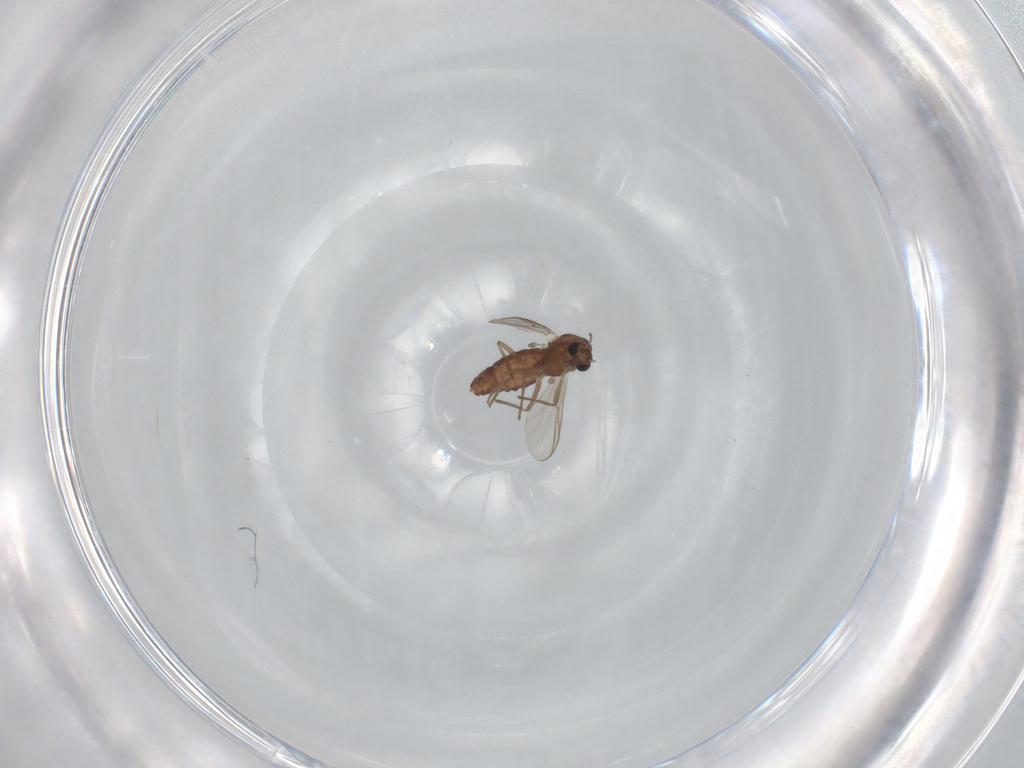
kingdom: Animalia
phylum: Arthropoda
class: Insecta
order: Diptera
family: Chironomidae
